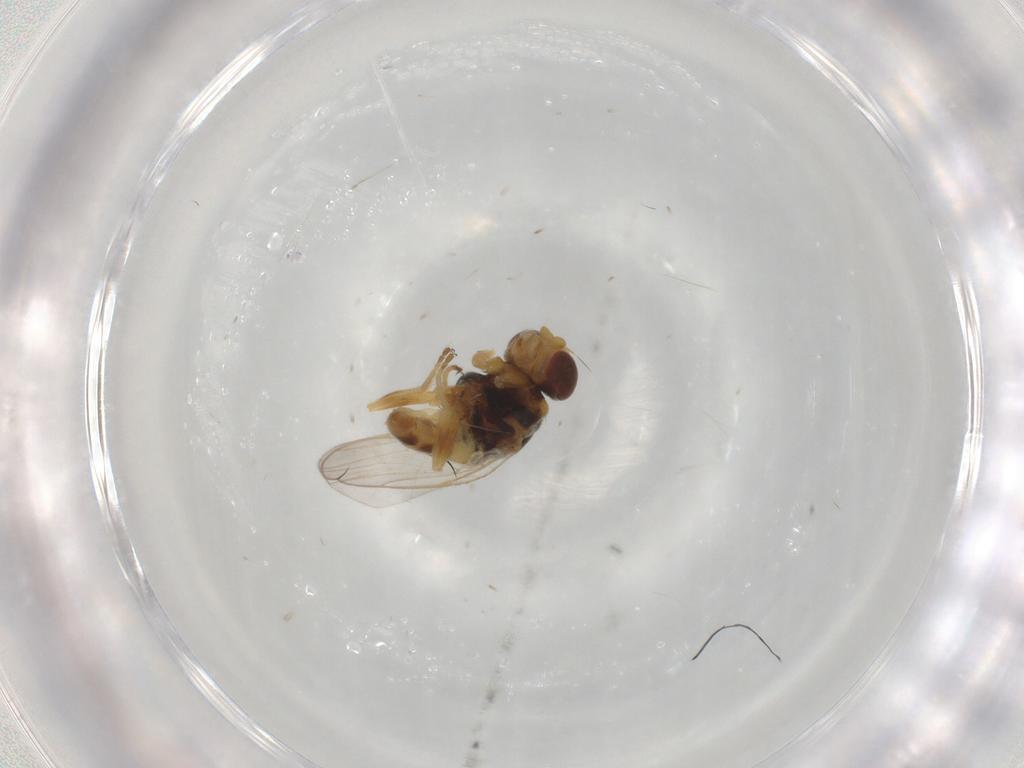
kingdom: Animalia
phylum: Arthropoda
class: Insecta
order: Diptera
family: Chloropidae
